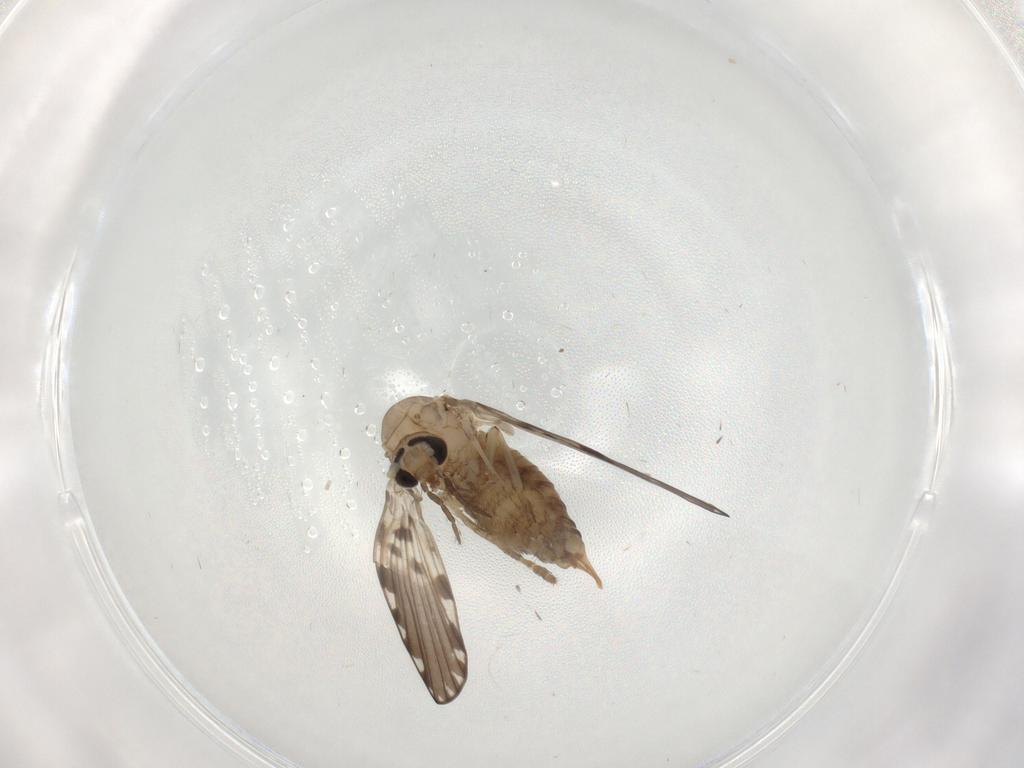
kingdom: Animalia
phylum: Arthropoda
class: Insecta
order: Diptera
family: Psychodidae
